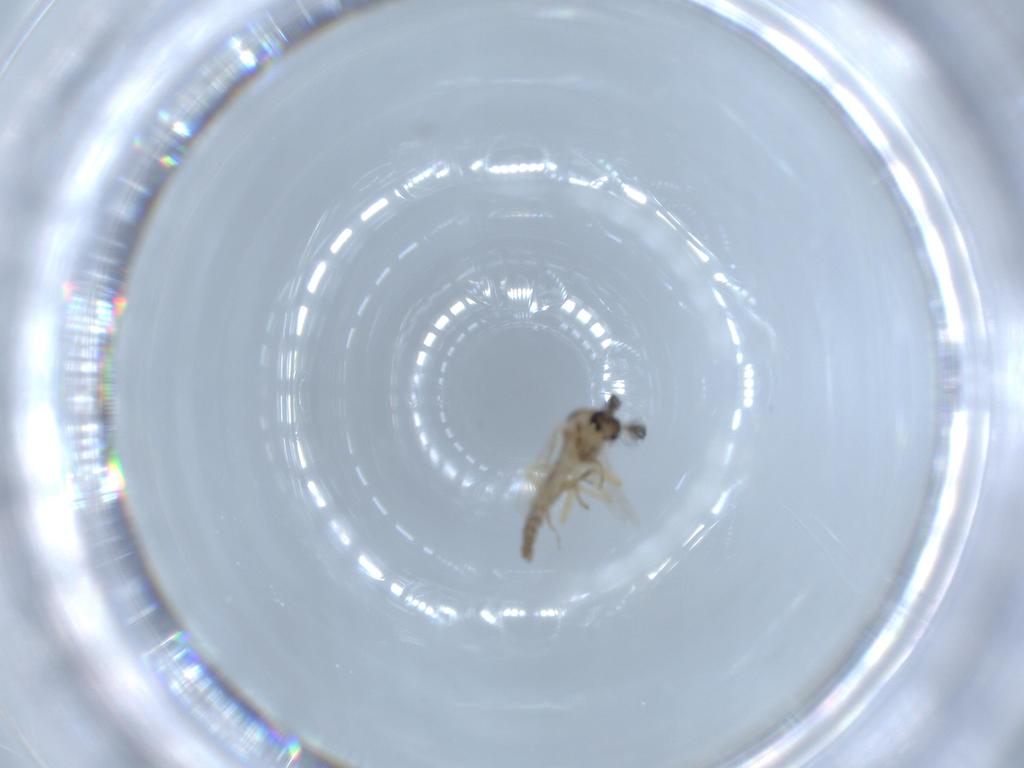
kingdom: Animalia
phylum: Arthropoda
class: Insecta
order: Diptera
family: Ceratopogonidae
